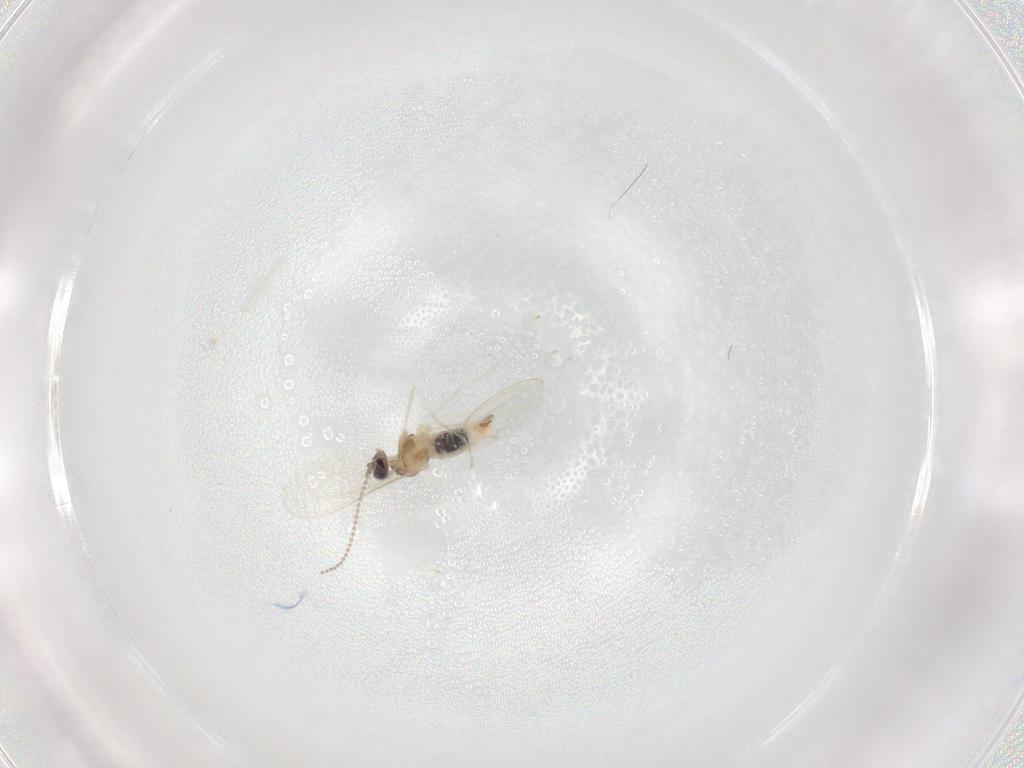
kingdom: Animalia
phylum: Arthropoda
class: Insecta
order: Diptera
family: Cecidomyiidae
